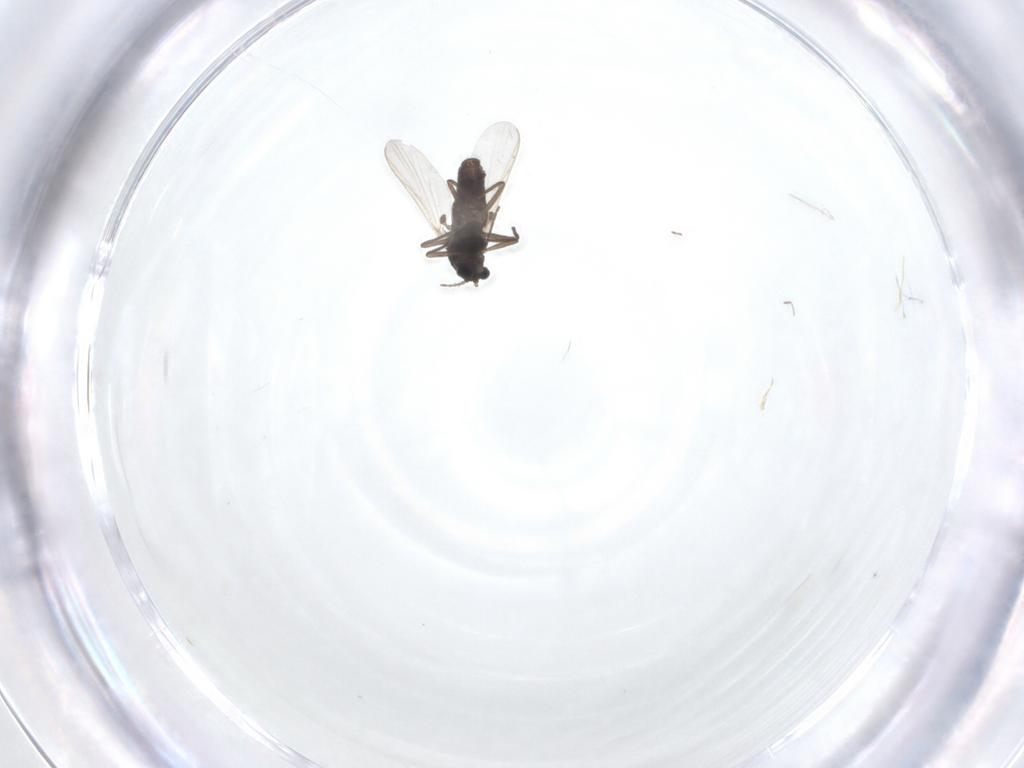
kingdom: Animalia
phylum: Arthropoda
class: Insecta
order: Diptera
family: Chironomidae
